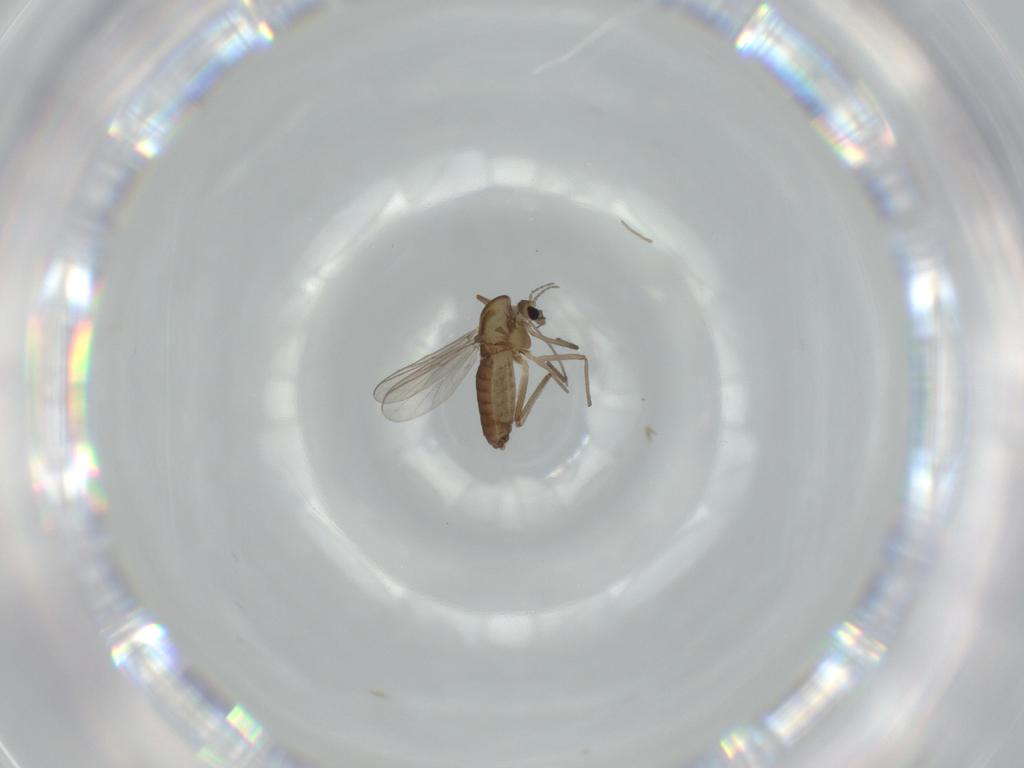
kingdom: Animalia
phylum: Arthropoda
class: Insecta
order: Diptera
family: Chironomidae
